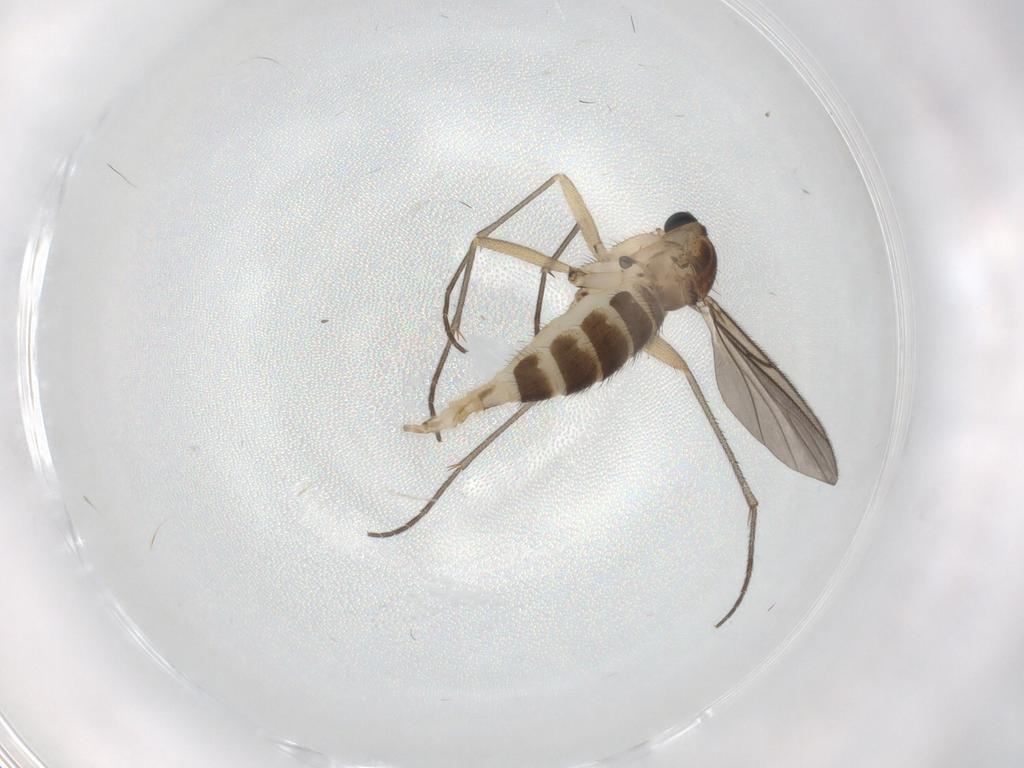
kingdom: Animalia
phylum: Arthropoda
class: Insecta
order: Diptera
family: Sciaridae
